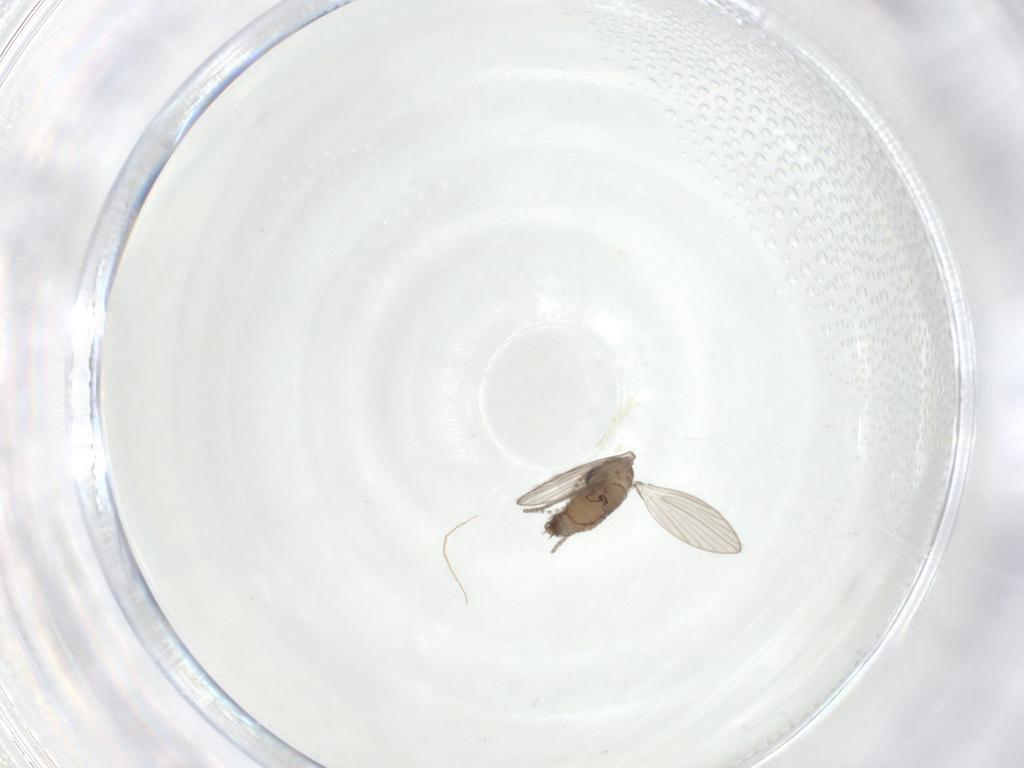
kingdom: Animalia
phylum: Arthropoda
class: Insecta
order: Diptera
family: Psychodidae
